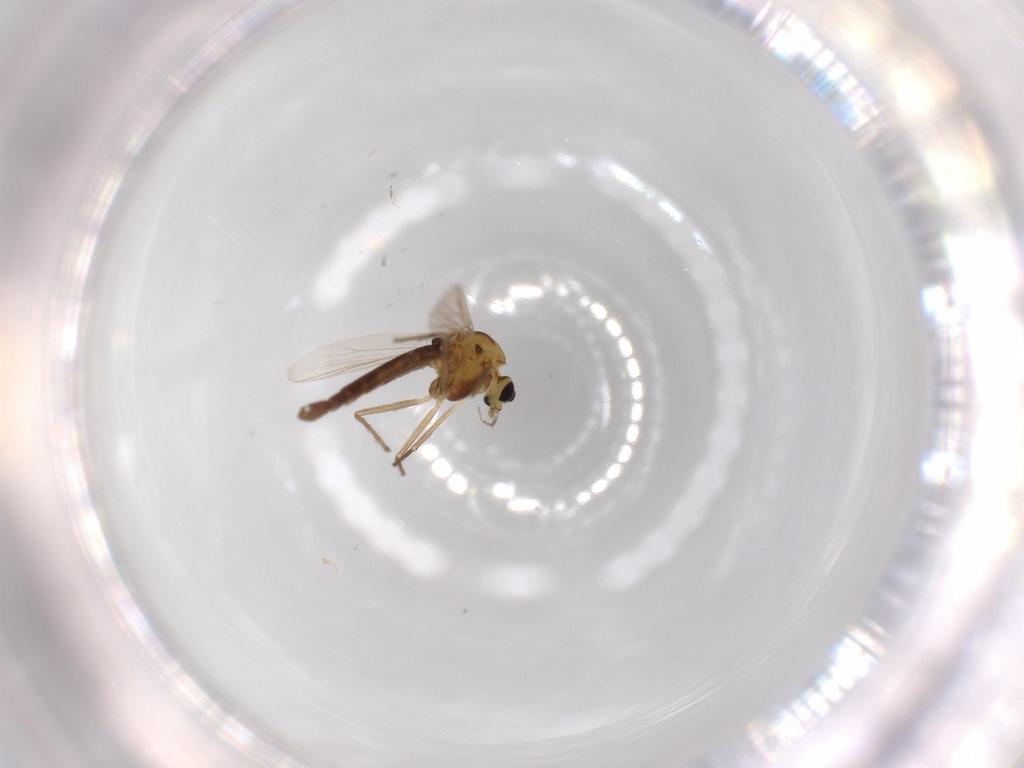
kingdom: Animalia
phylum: Arthropoda
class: Insecta
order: Diptera
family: Chironomidae
